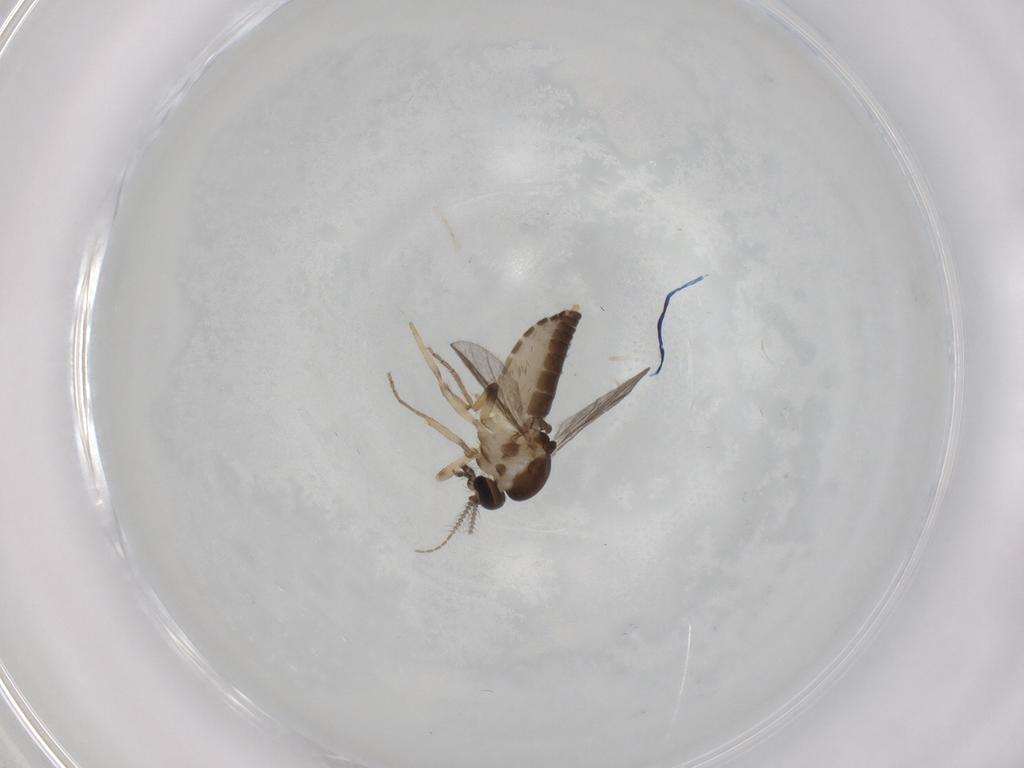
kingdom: Animalia
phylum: Arthropoda
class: Insecta
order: Diptera
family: Ceratopogonidae
